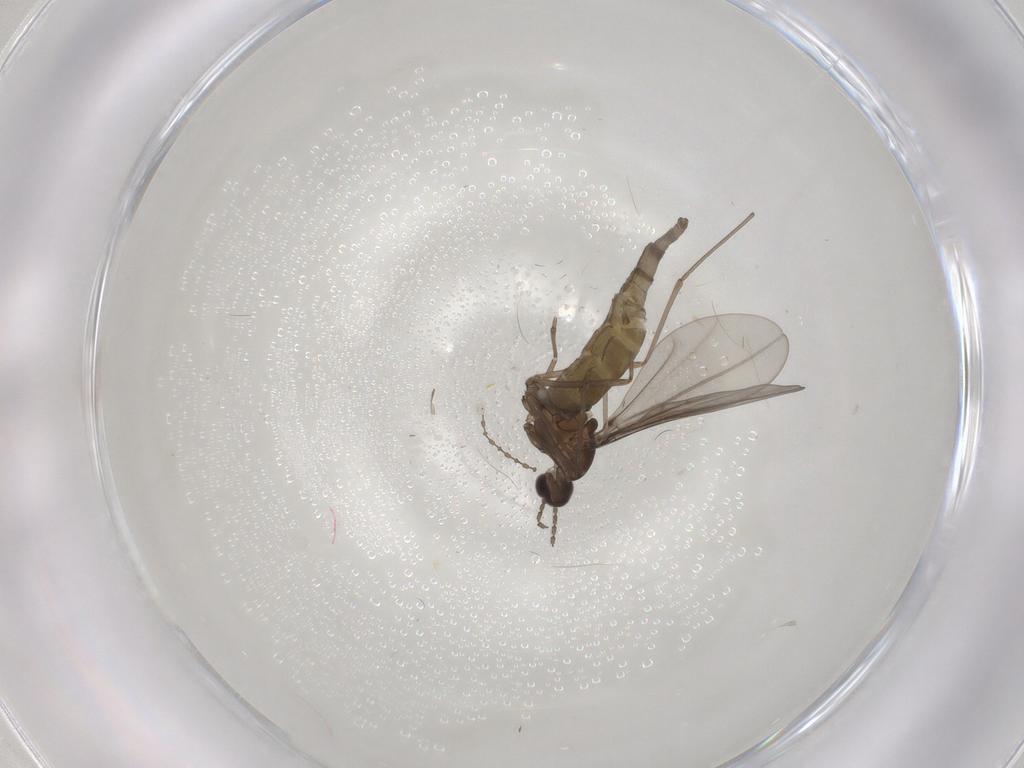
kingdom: Animalia
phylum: Arthropoda
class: Insecta
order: Diptera
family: Cecidomyiidae
